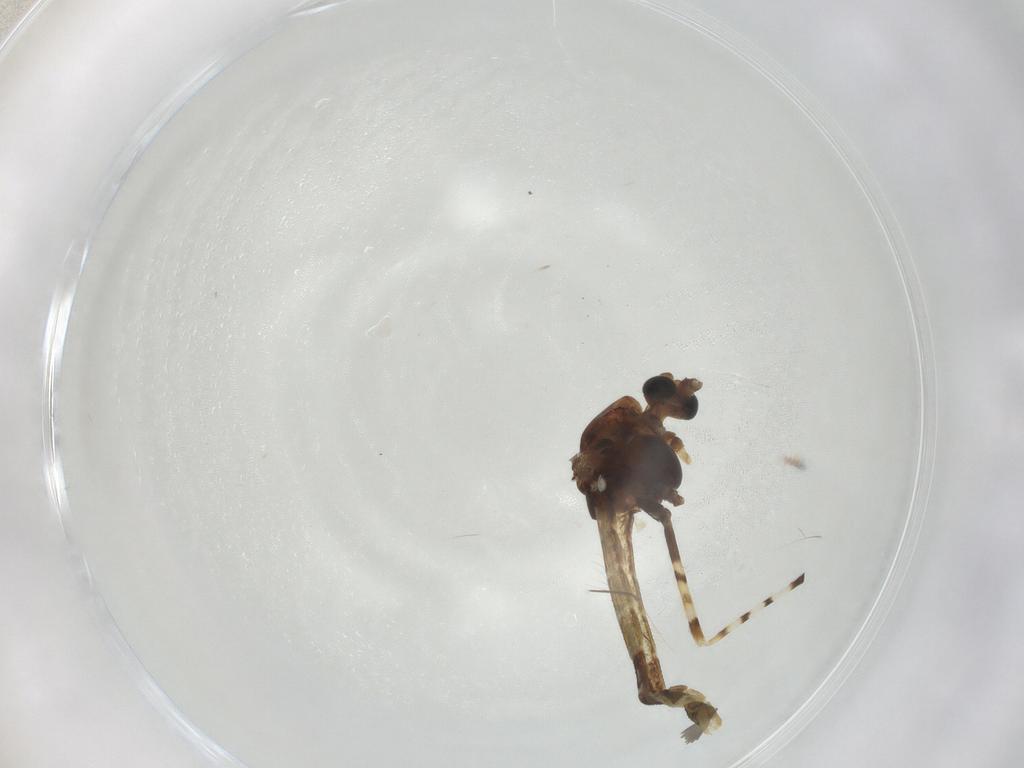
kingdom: Animalia
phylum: Arthropoda
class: Insecta
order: Diptera
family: Chironomidae
